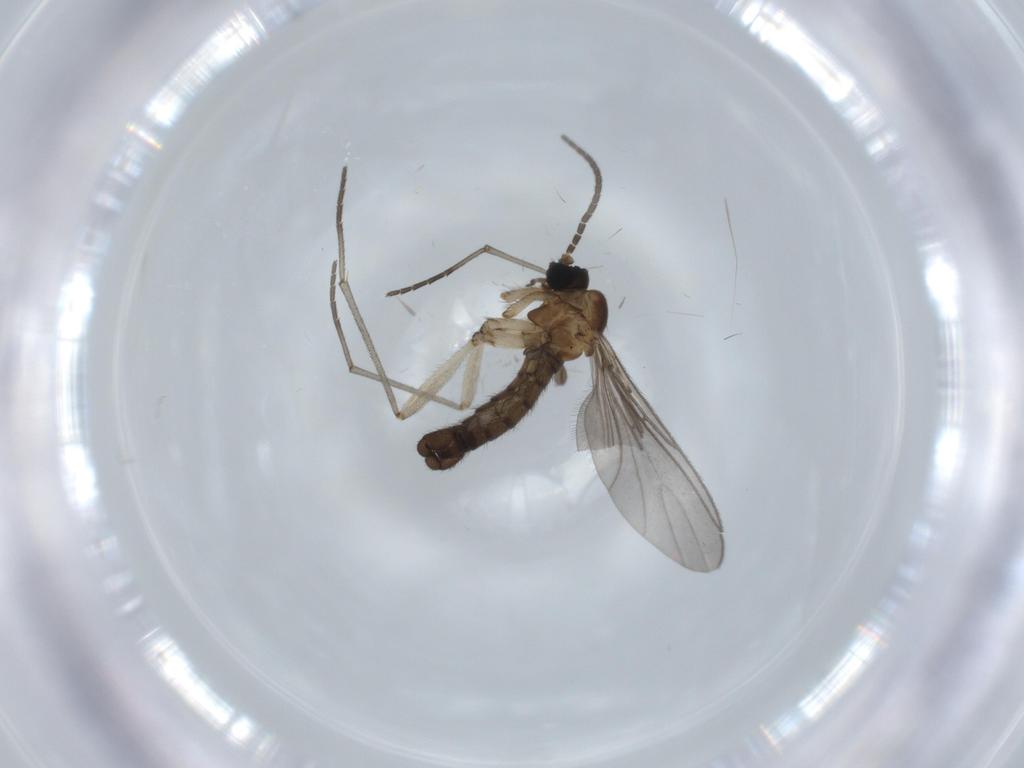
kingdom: Animalia
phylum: Arthropoda
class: Insecta
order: Diptera
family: Sciaridae
